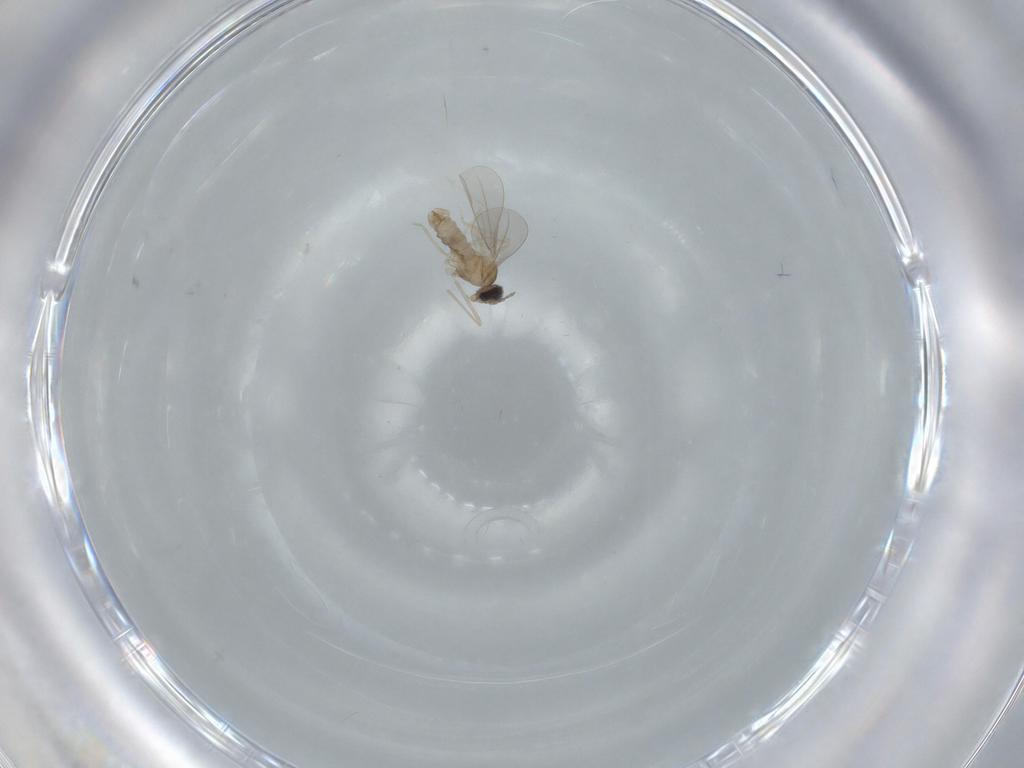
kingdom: Animalia
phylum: Arthropoda
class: Insecta
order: Diptera
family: Cecidomyiidae
